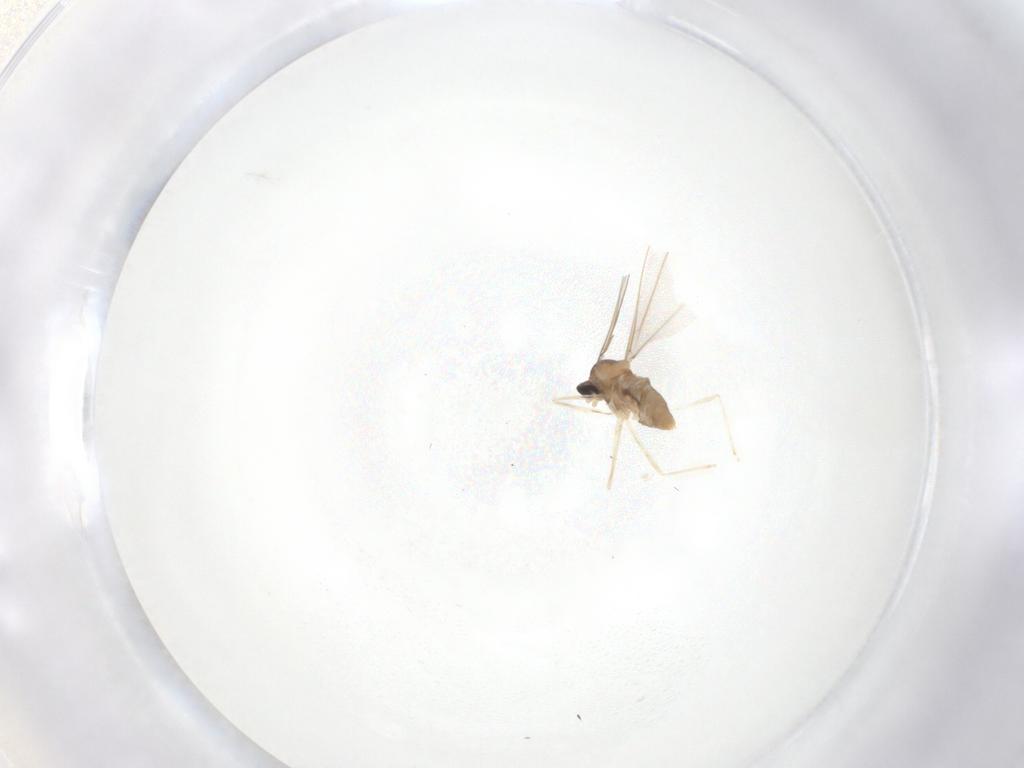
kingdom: Animalia
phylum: Arthropoda
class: Insecta
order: Diptera
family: Cecidomyiidae
